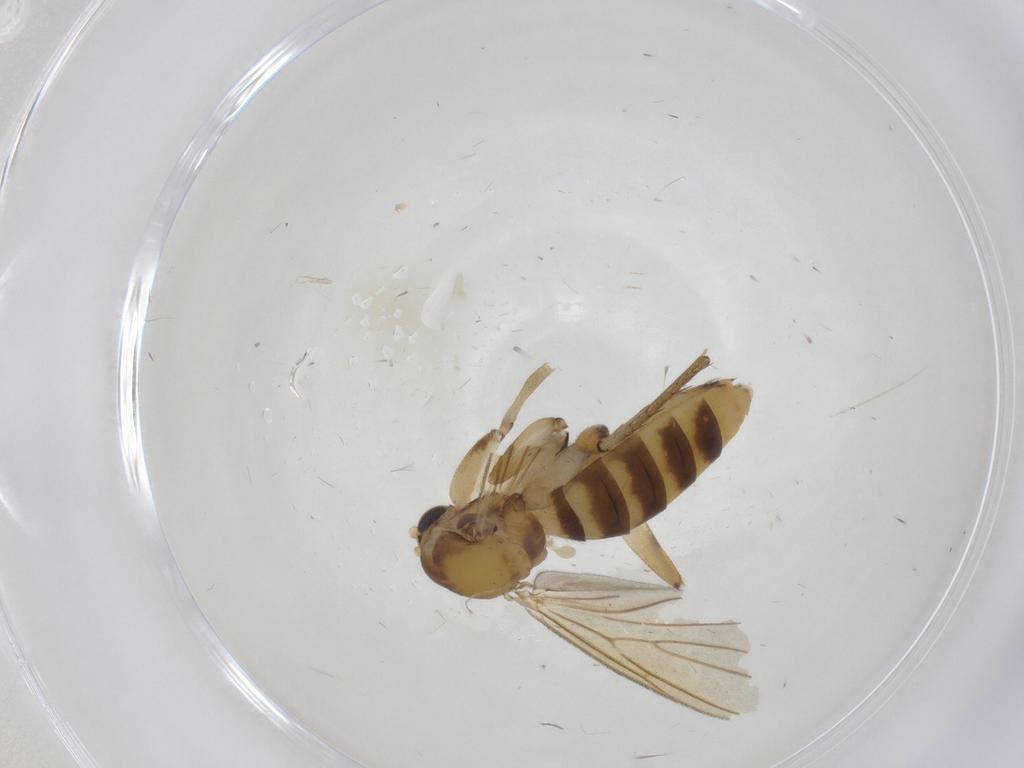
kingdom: Animalia
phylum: Arthropoda
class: Insecta
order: Diptera
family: Mycetophilidae
